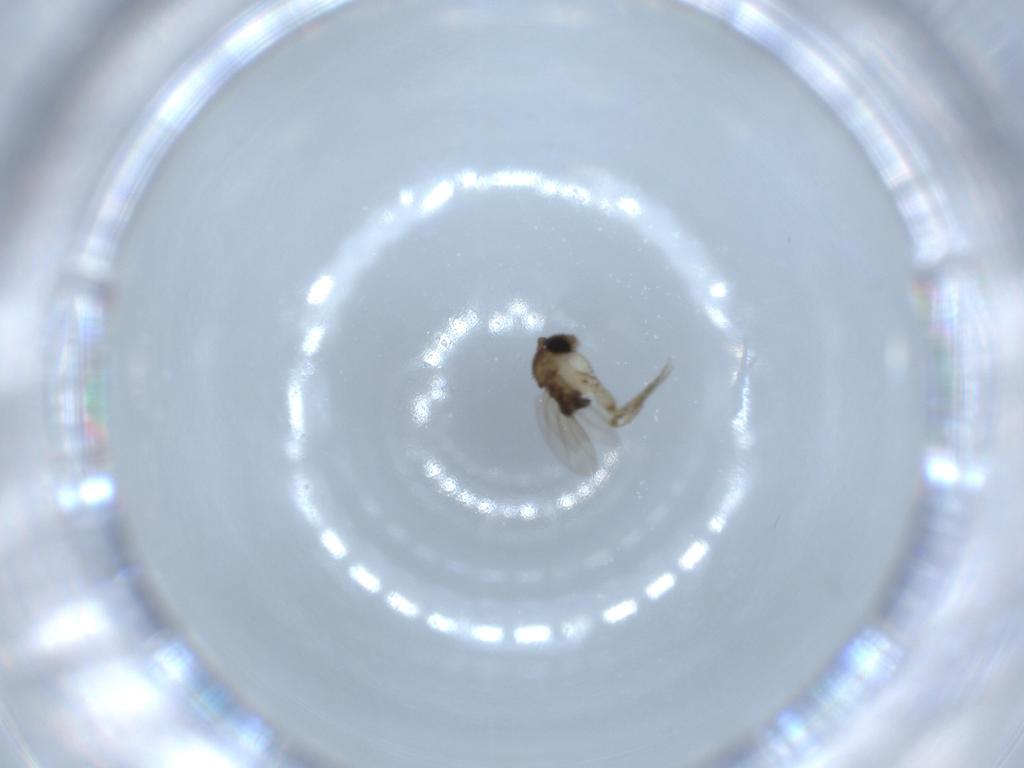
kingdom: Animalia
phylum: Arthropoda
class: Insecta
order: Diptera
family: Phoridae
